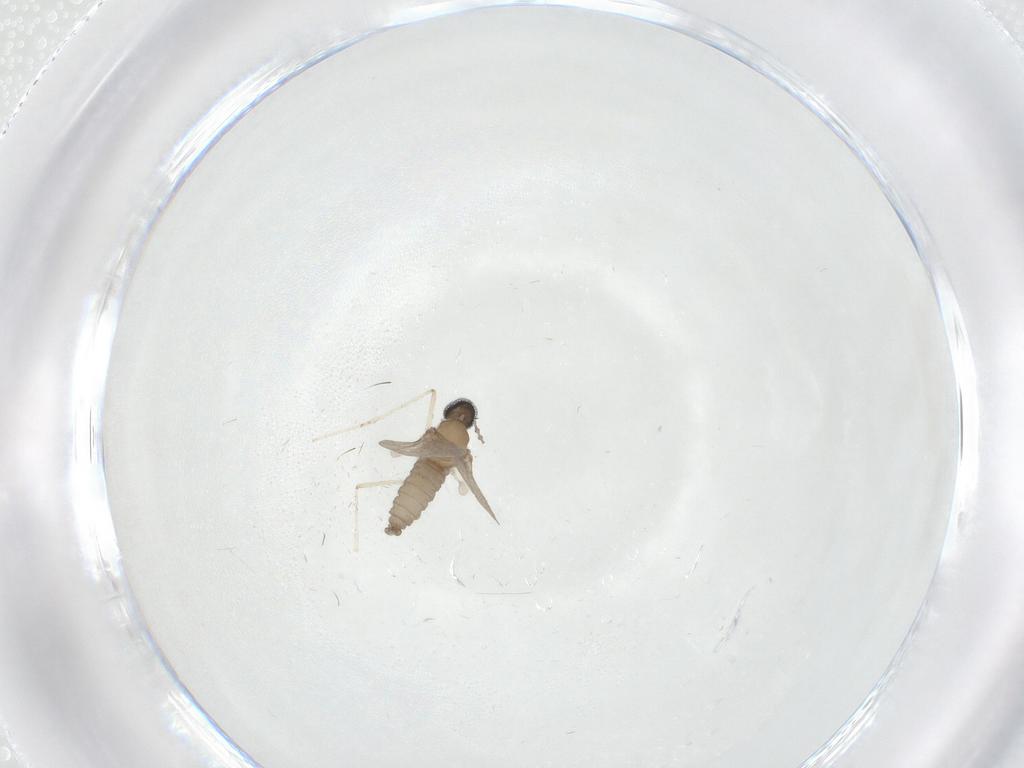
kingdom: Animalia
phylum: Arthropoda
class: Insecta
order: Diptera
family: Cecidomyiidae
